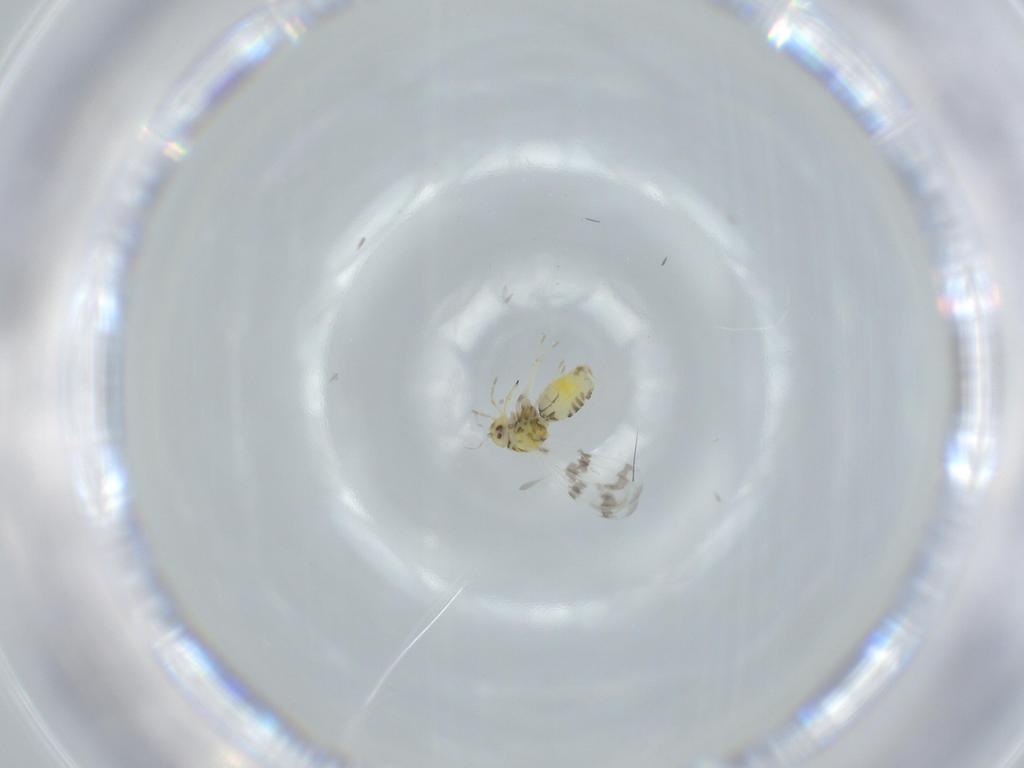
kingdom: Animalia
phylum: Arthropoda
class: Insecta
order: Hemiptera
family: Aleyrodidae
